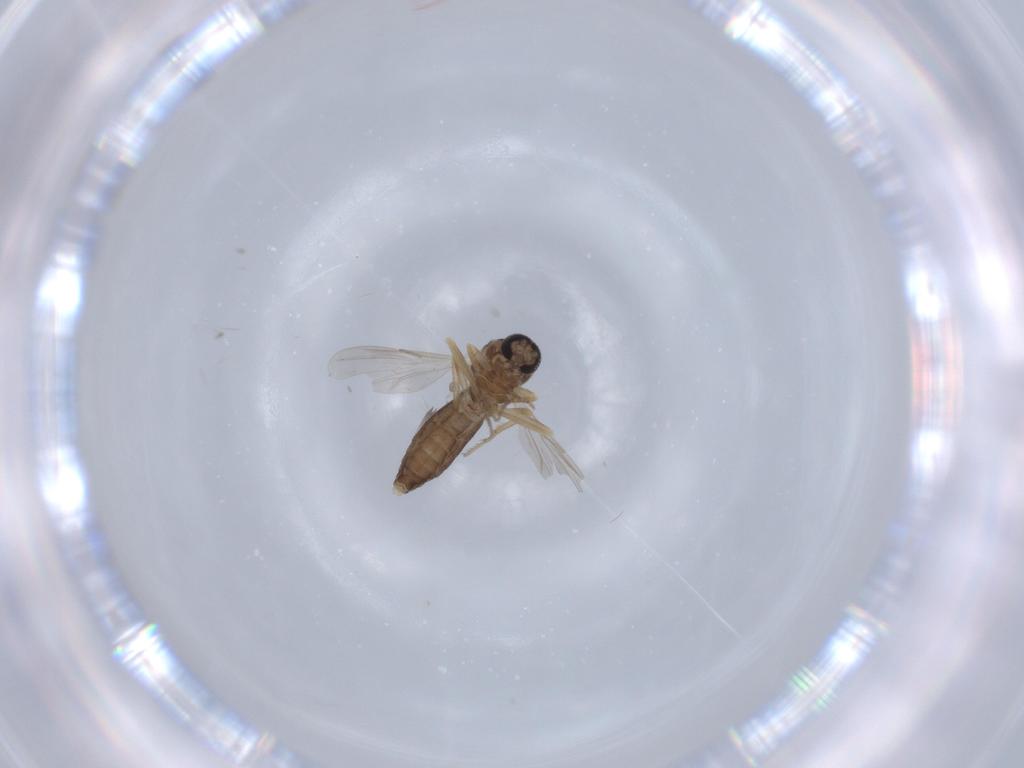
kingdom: Animalia
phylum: Arthropoda
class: Insecta
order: Diptera
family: Ceratopogonidae
